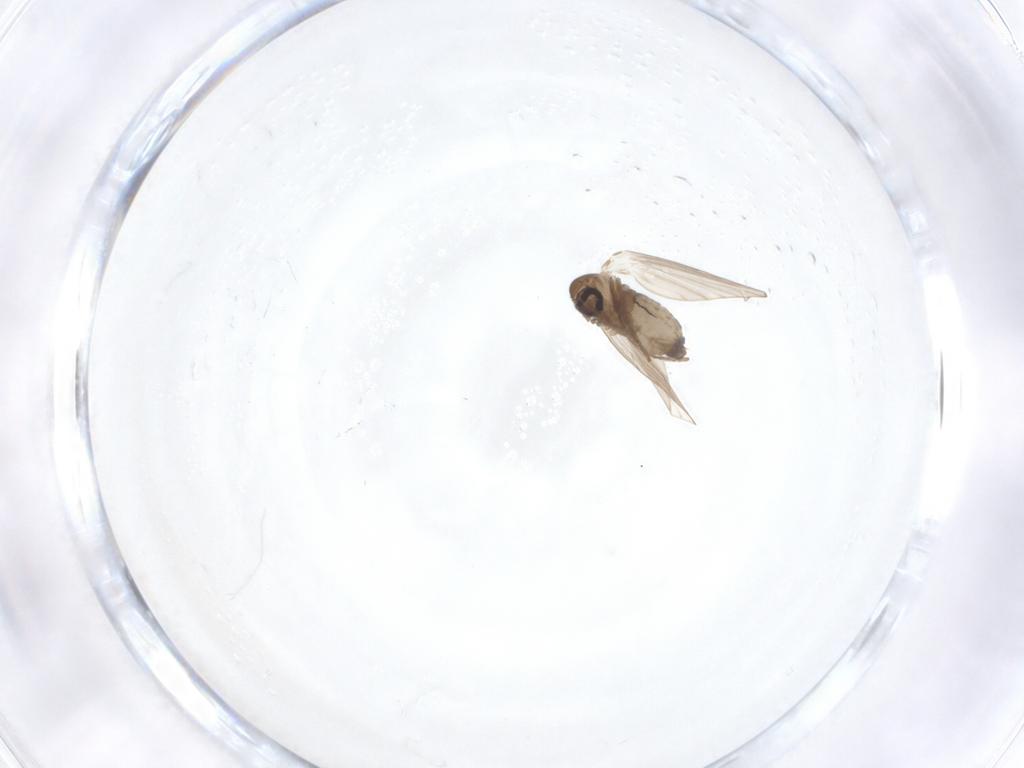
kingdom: Animalia
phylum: Arthropoda
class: Insecta
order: Diptera
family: Psychodidae
